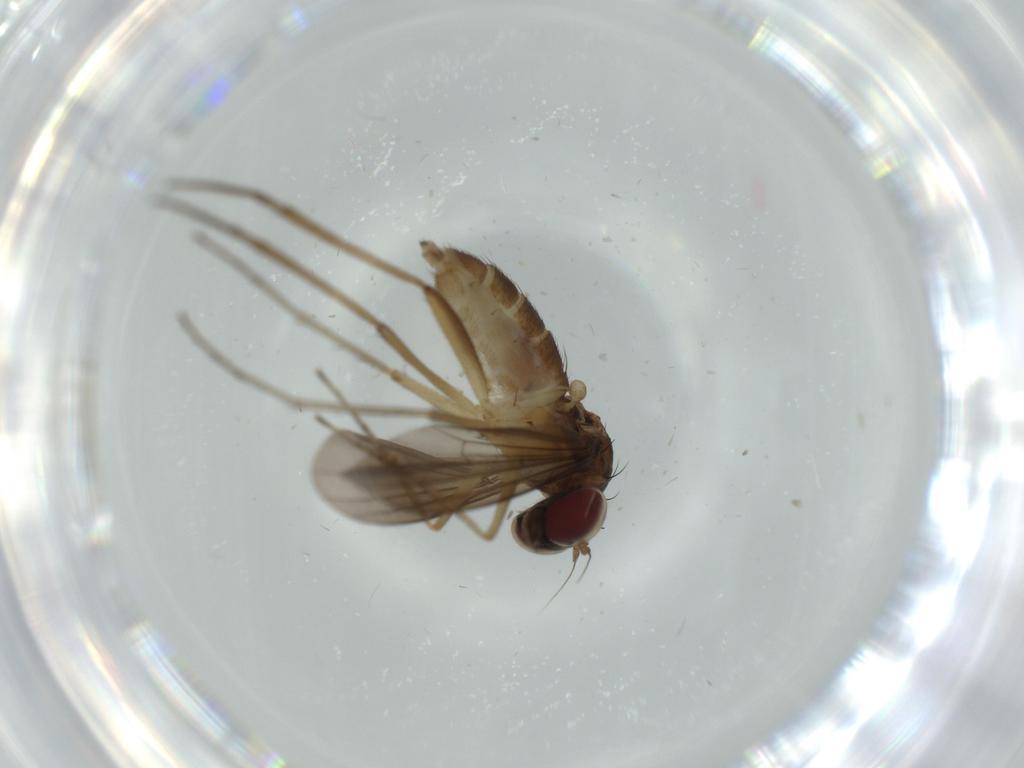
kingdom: Animalia
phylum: Arthropoda
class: Insecta
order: Diptera
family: Dolichopodidae
